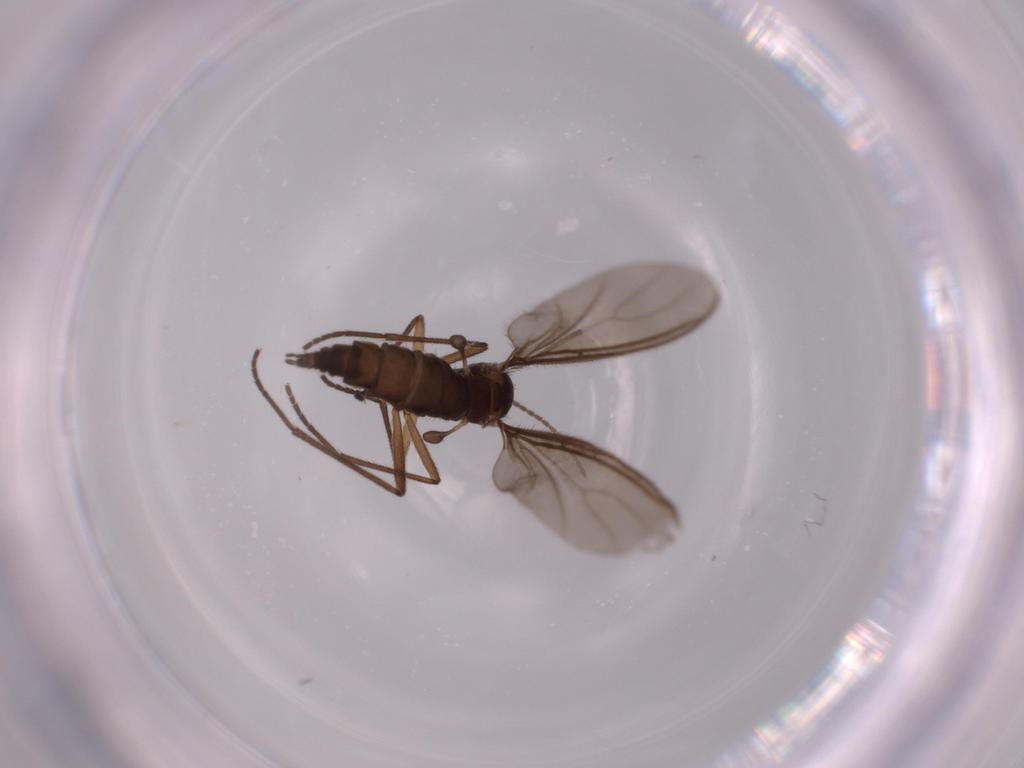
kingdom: Animalia
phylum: Arthropoda
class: Insecta
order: Diptera
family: Sciaridae
